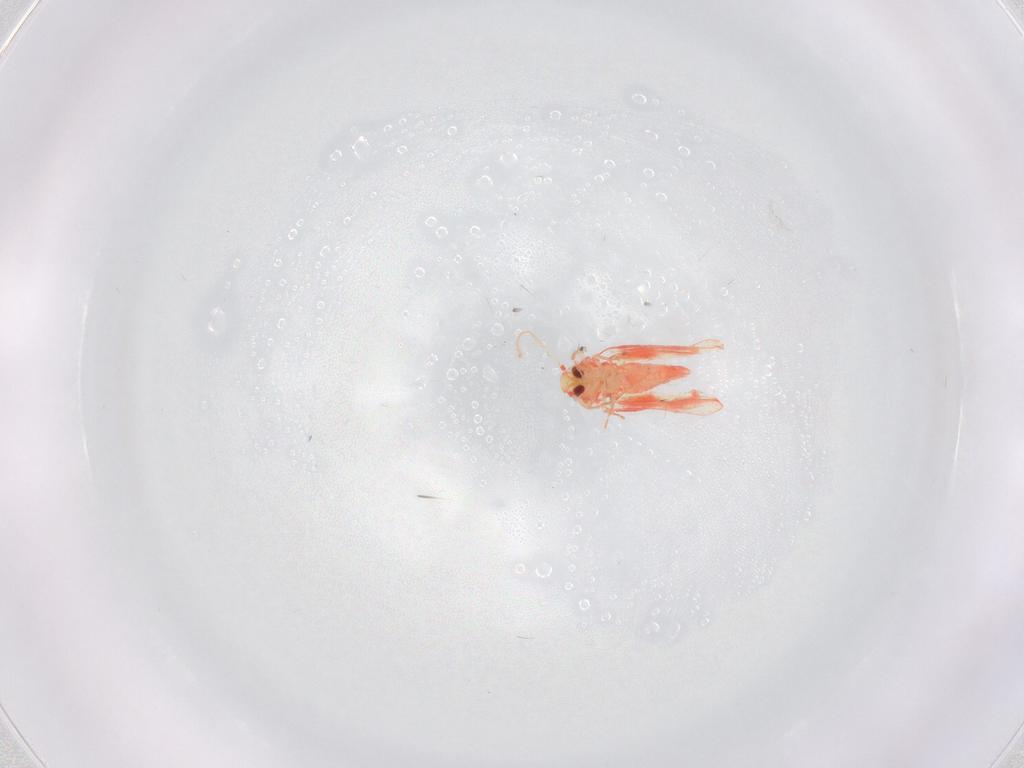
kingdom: Animalia
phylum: Arthropoda
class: Insecta
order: Hemiptera
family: Aleyrodidae
